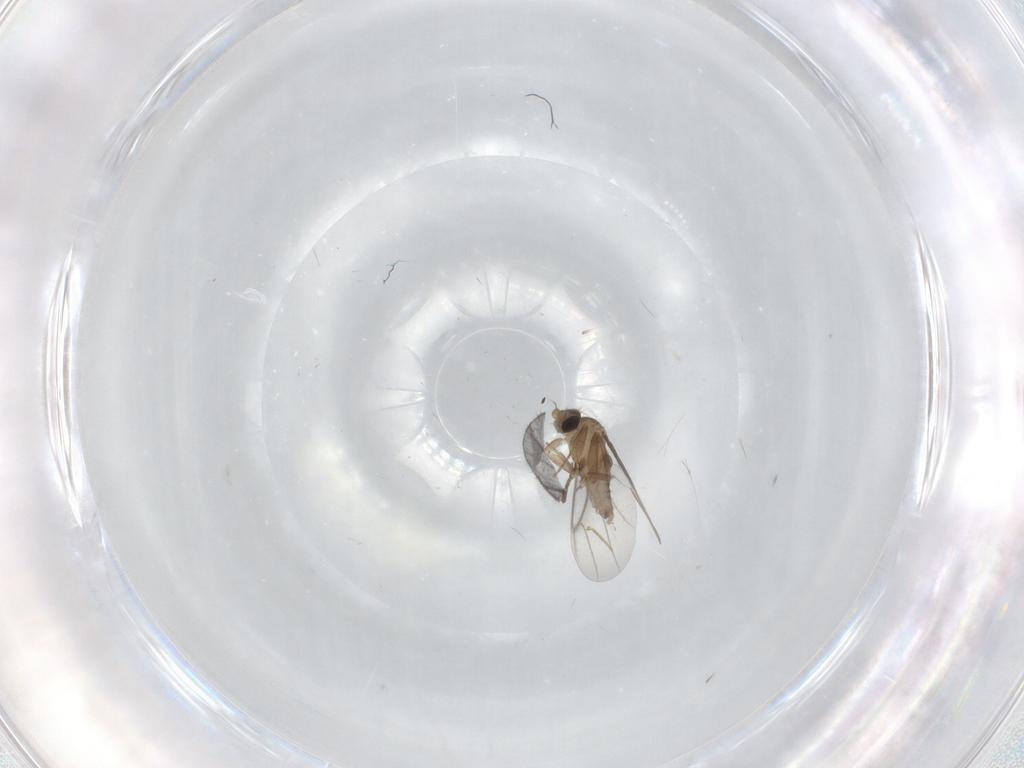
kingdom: Animalia
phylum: Arthropoda
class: Insecta
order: Diptera
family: Sciaridae
